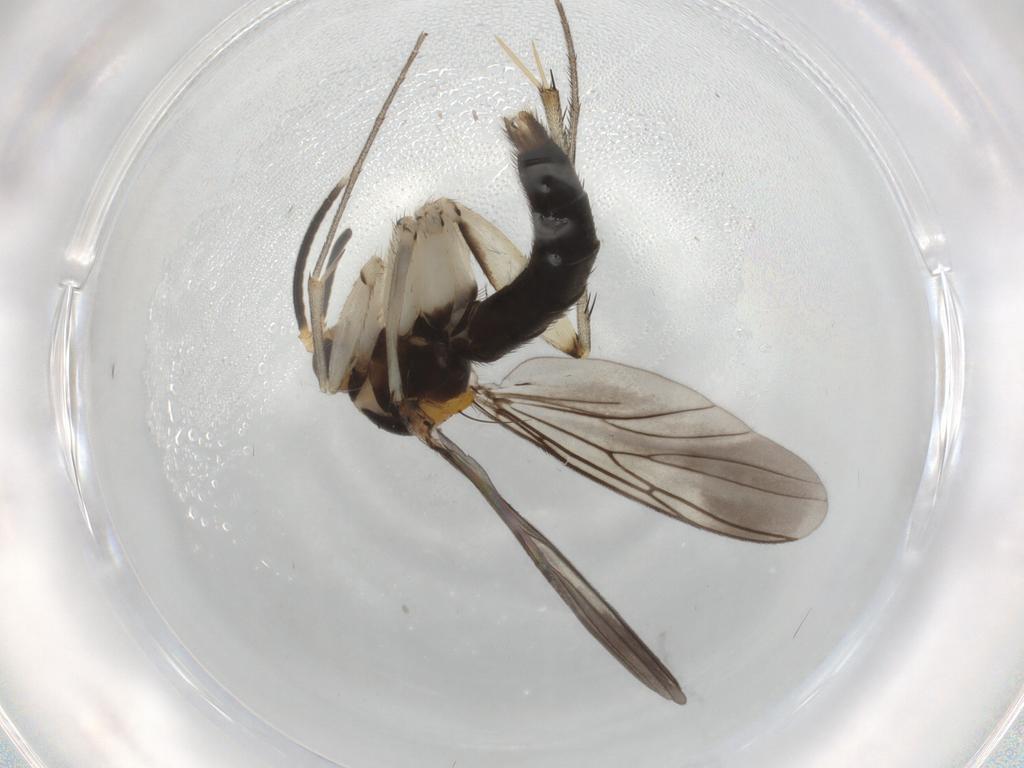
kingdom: Animalia
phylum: Arthropoda
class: Insecta
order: Diptera
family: Mycetophilidae
